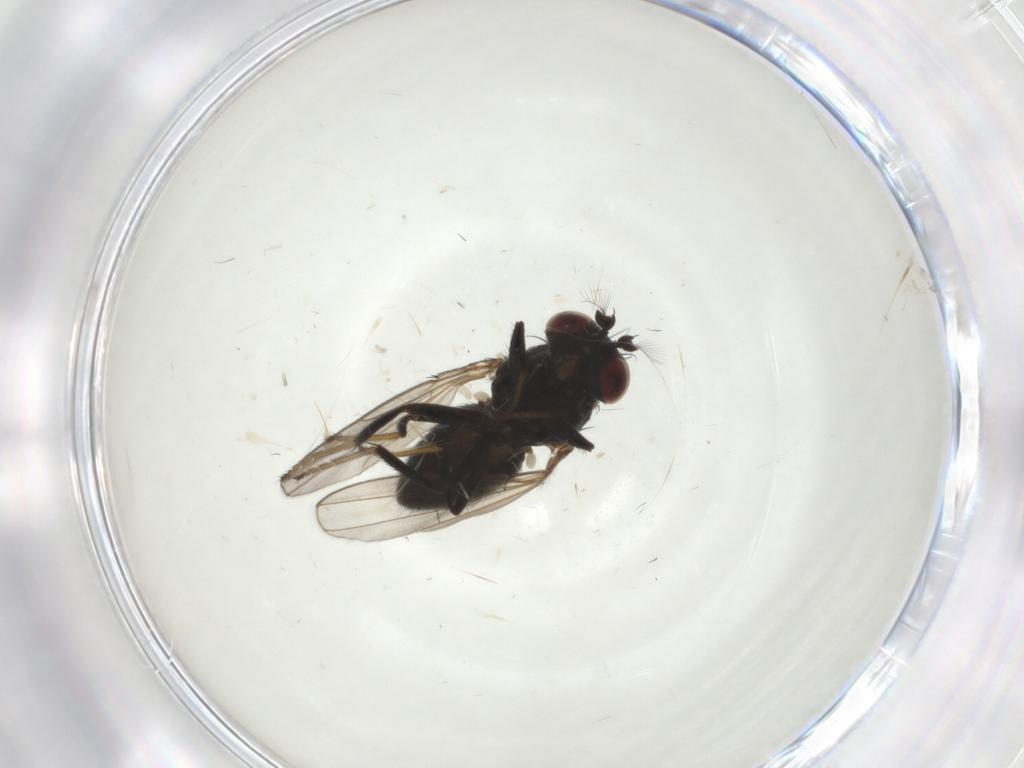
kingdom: Animalia
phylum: Arthropoda
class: Insecta
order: Diptera
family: Ephydridae
